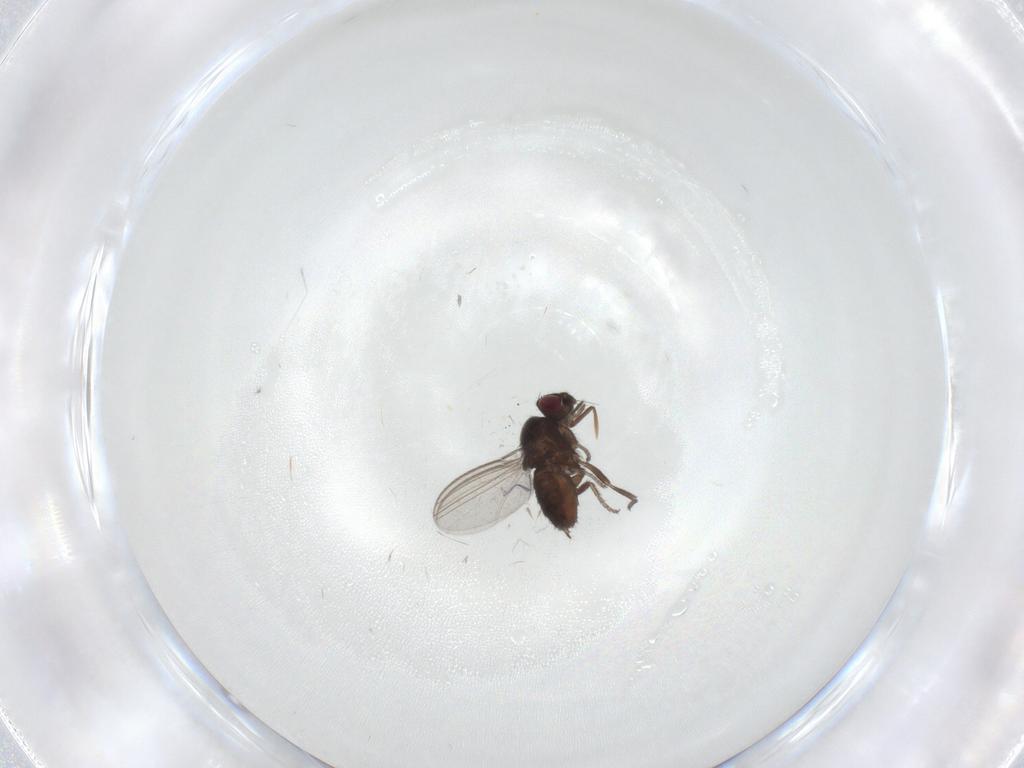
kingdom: Animalia
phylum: Arthropoda
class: Insecta
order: Diptera
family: Milichiidae
